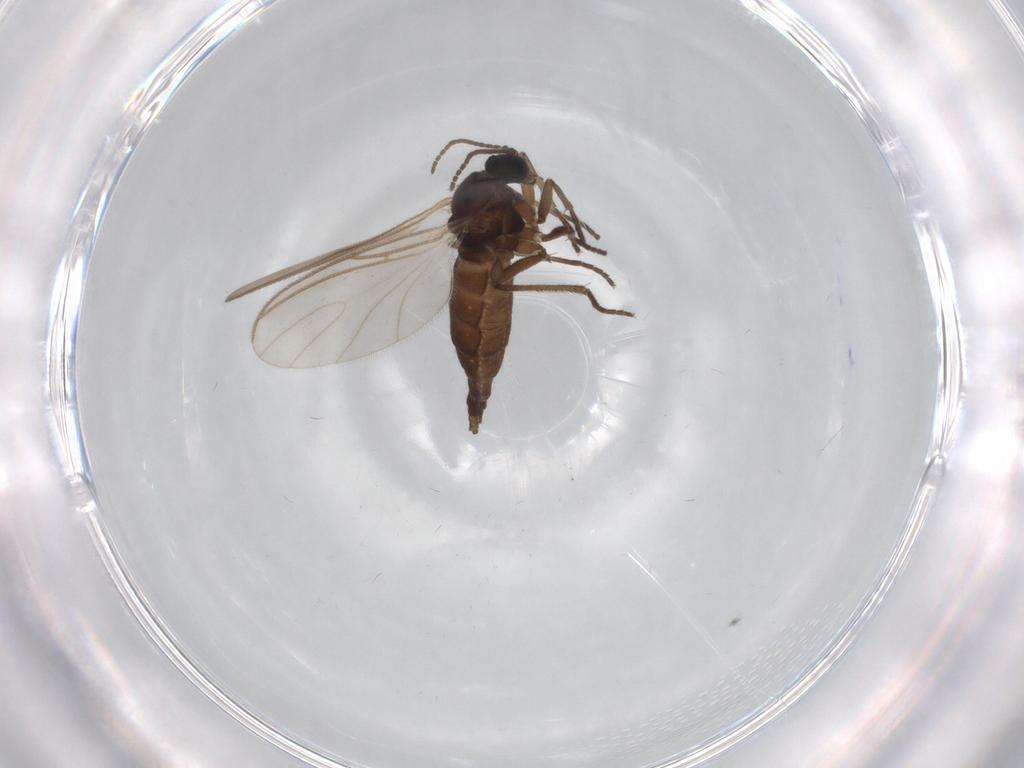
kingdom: Animalia
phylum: Arthropoda
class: Insecta
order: Diptera
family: Sciaridae
